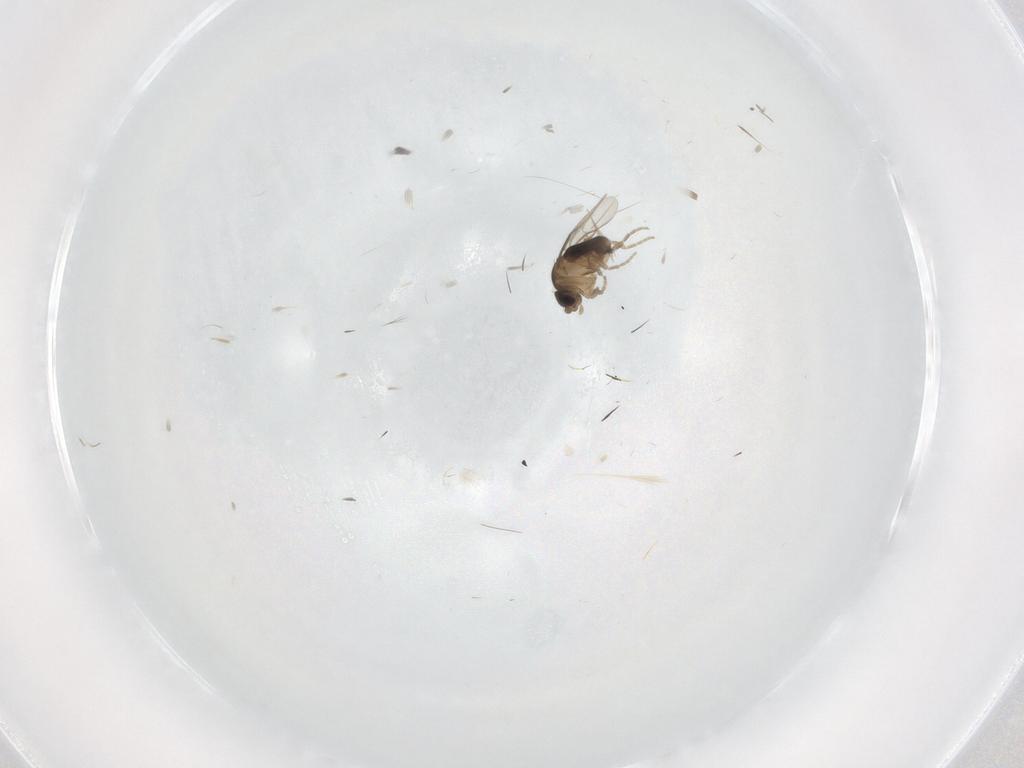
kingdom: Animalia
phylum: Arthropoda
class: Insecta
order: Diptera
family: Phoridae
